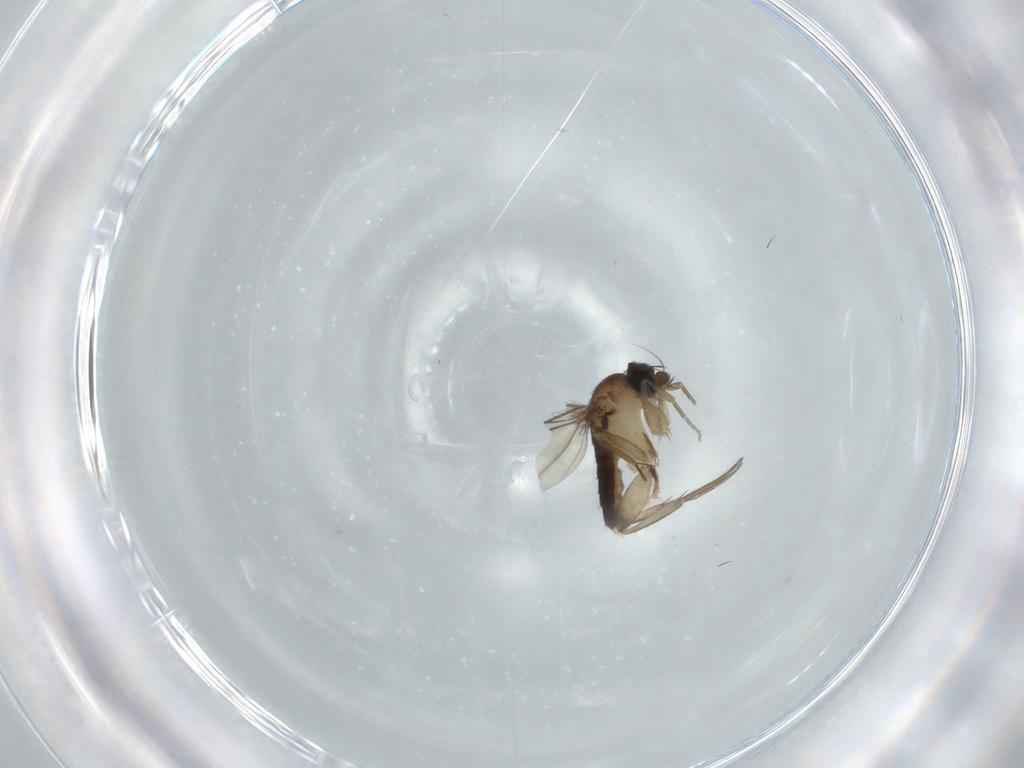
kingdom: Animalia
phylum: Arthropoda
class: Insecta
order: Diptera
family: Phoridae
